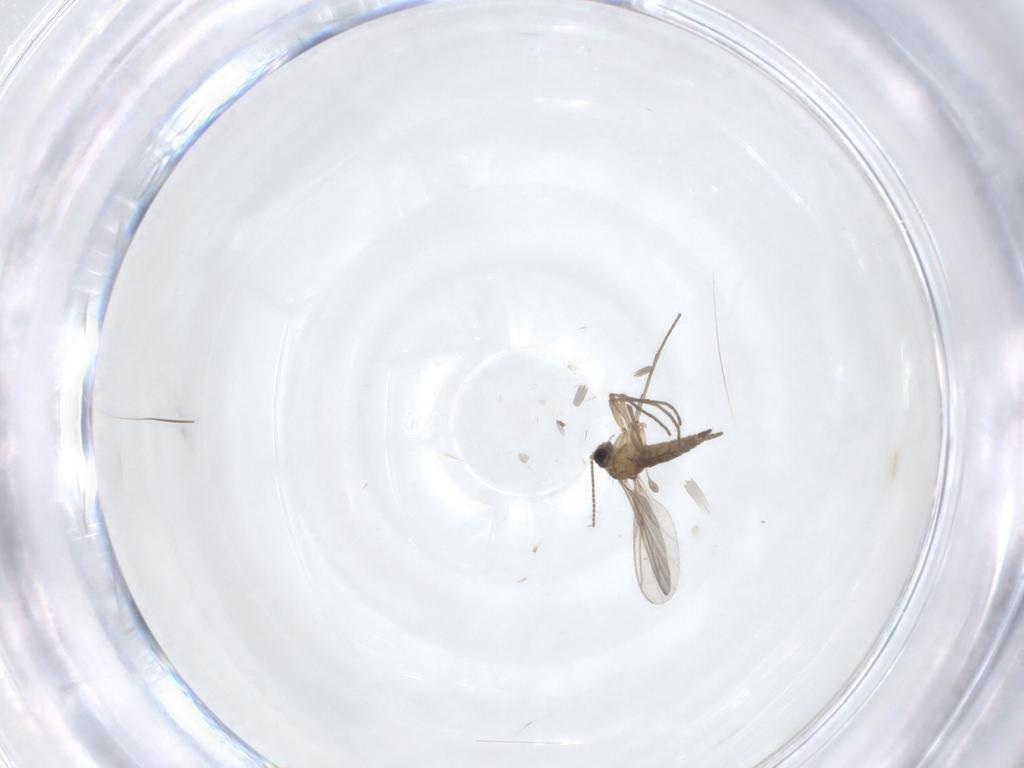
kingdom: Animalia
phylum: Arthropoda
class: Insecta
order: Diptera
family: Sciaridae
